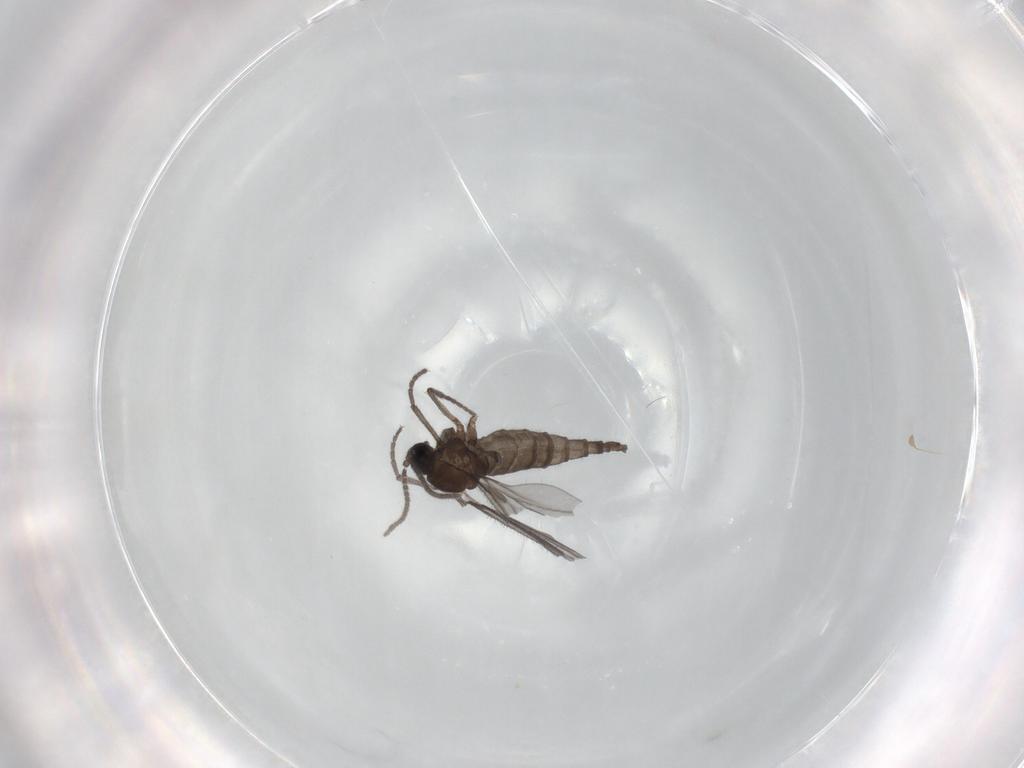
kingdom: Animalia
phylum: Arthropoda
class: Insecta
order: Diptera
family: Sciaridae
